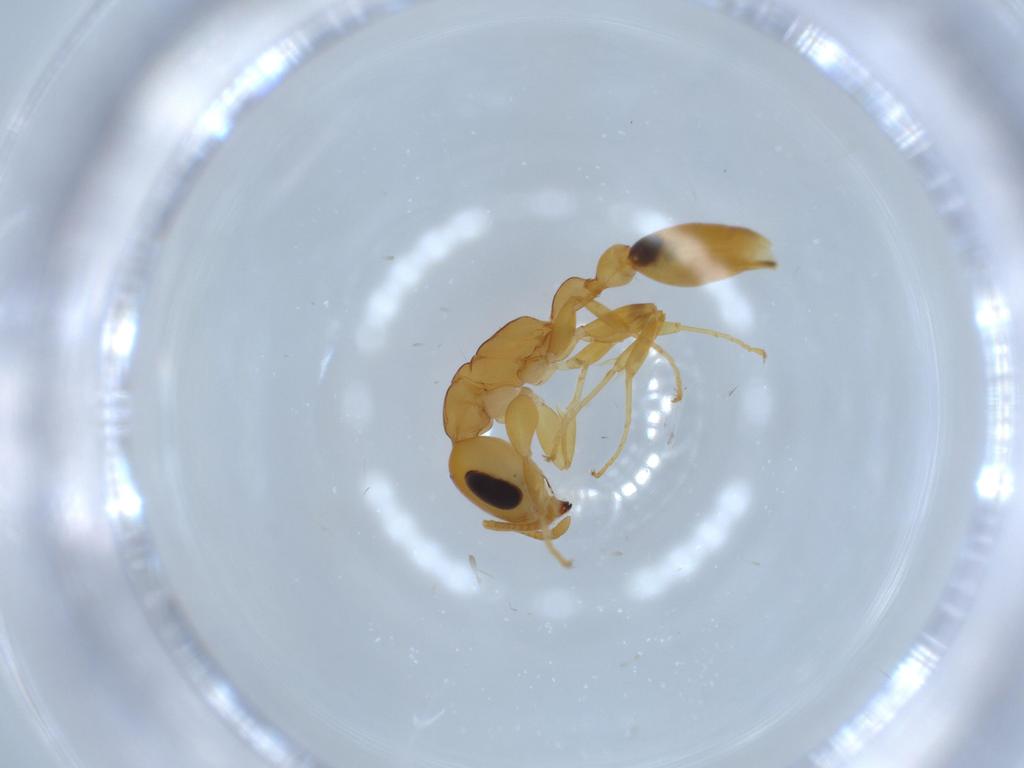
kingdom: Animalia
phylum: Arthropoda
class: Insecta
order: Hymenoptera
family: Formicidae
